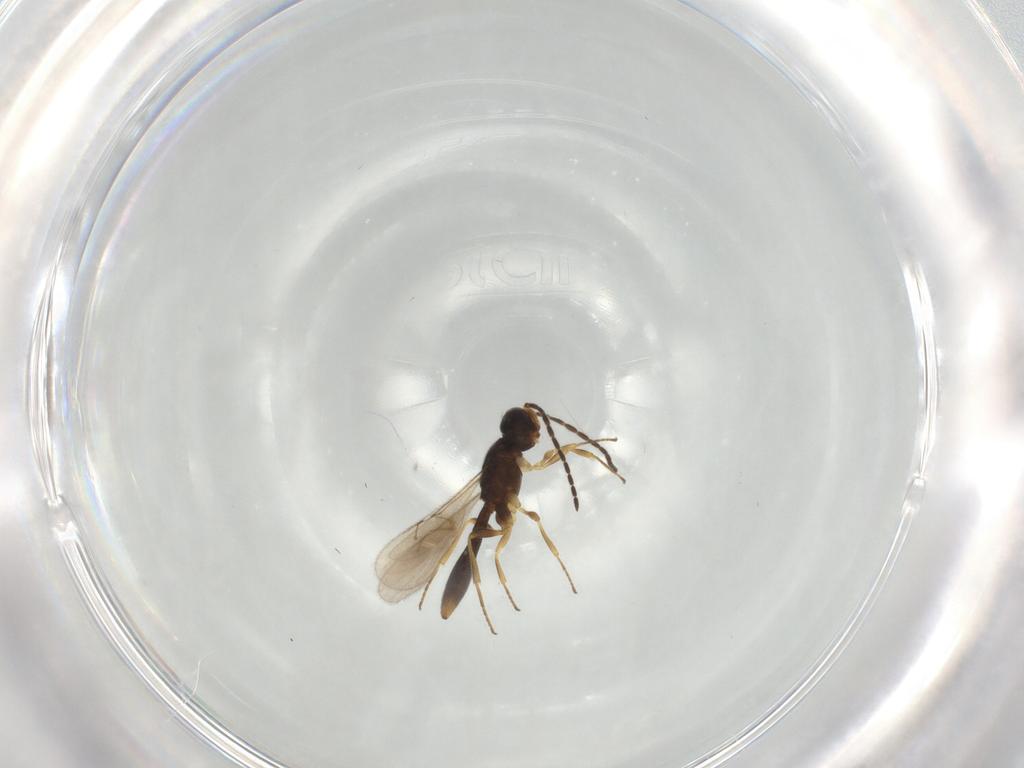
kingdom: Animalia
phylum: Arthropoda
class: Insecta
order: Hymenoptera
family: Scelionidae
